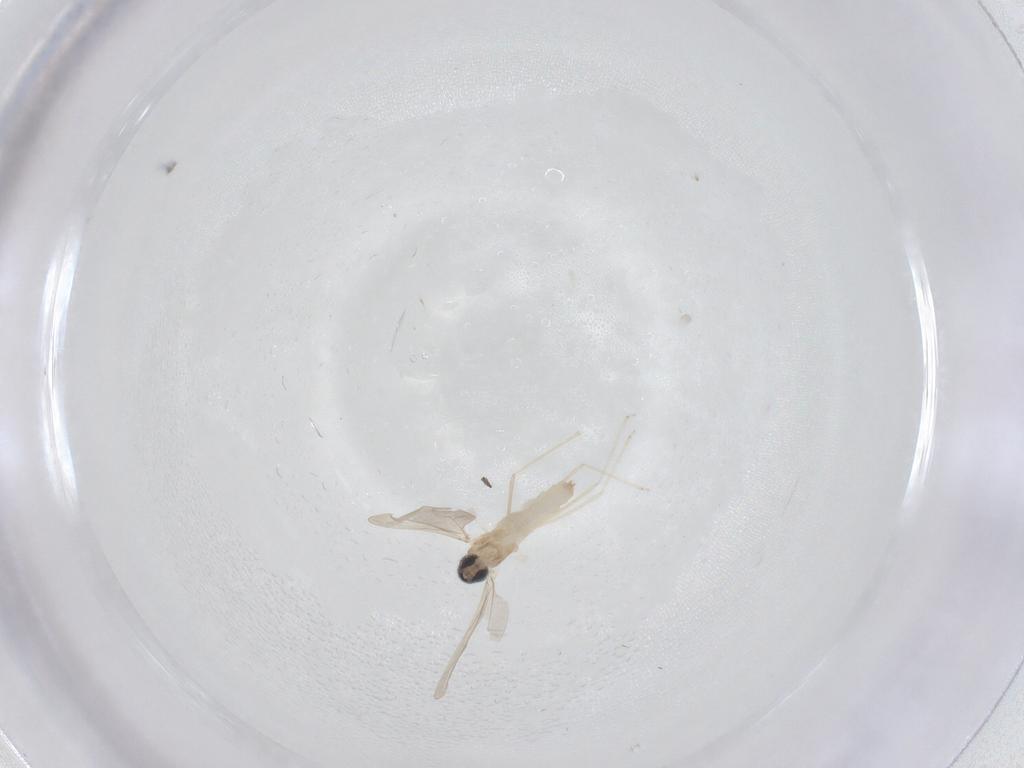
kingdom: Animalia
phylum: Arthropoda
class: Insecta
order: Diptera
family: Cecidomyiidae
